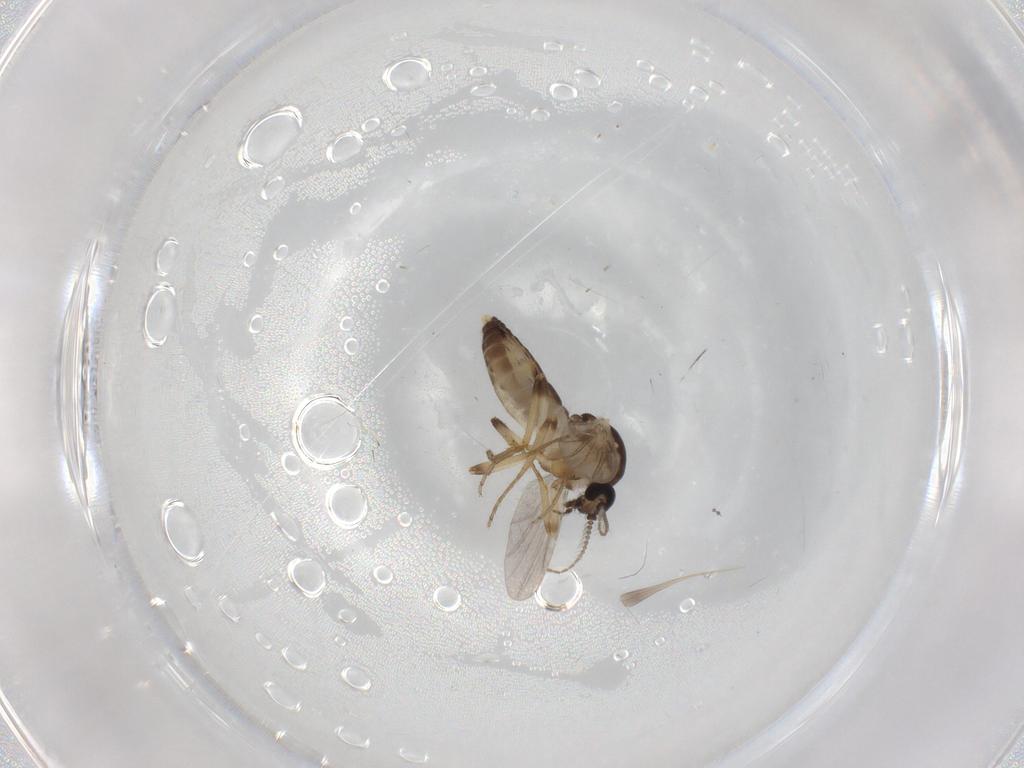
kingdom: Animalia
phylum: Arthropoda
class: Insecta
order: Diptera
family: Ceratopogonidae
